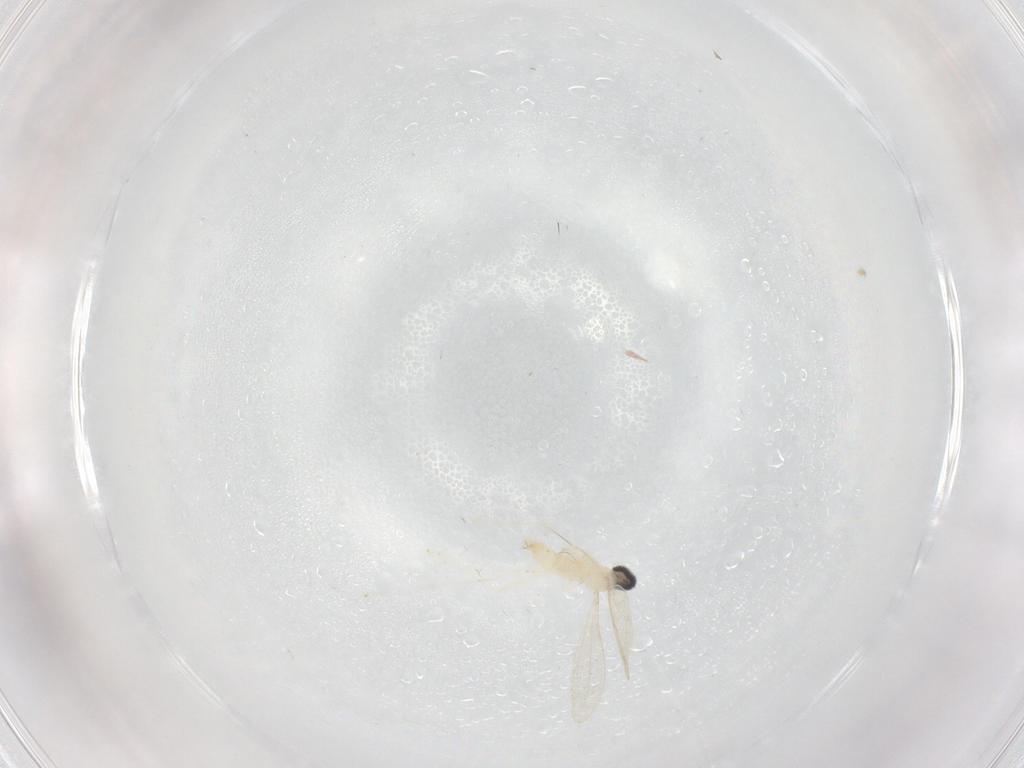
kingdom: Animalia
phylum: Arthropoda
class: Insecta
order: Diptera
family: Cecidomyiidae
